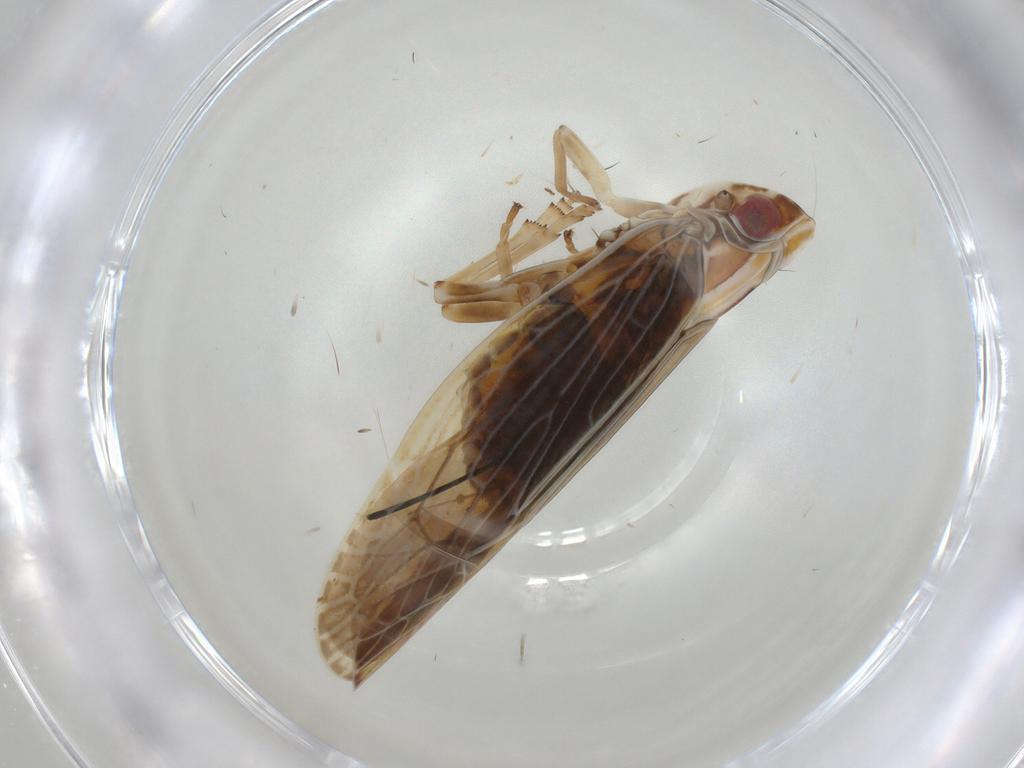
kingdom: Animalia
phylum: Arthropoda
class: Insecta
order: Hemiptera
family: Achilidae
